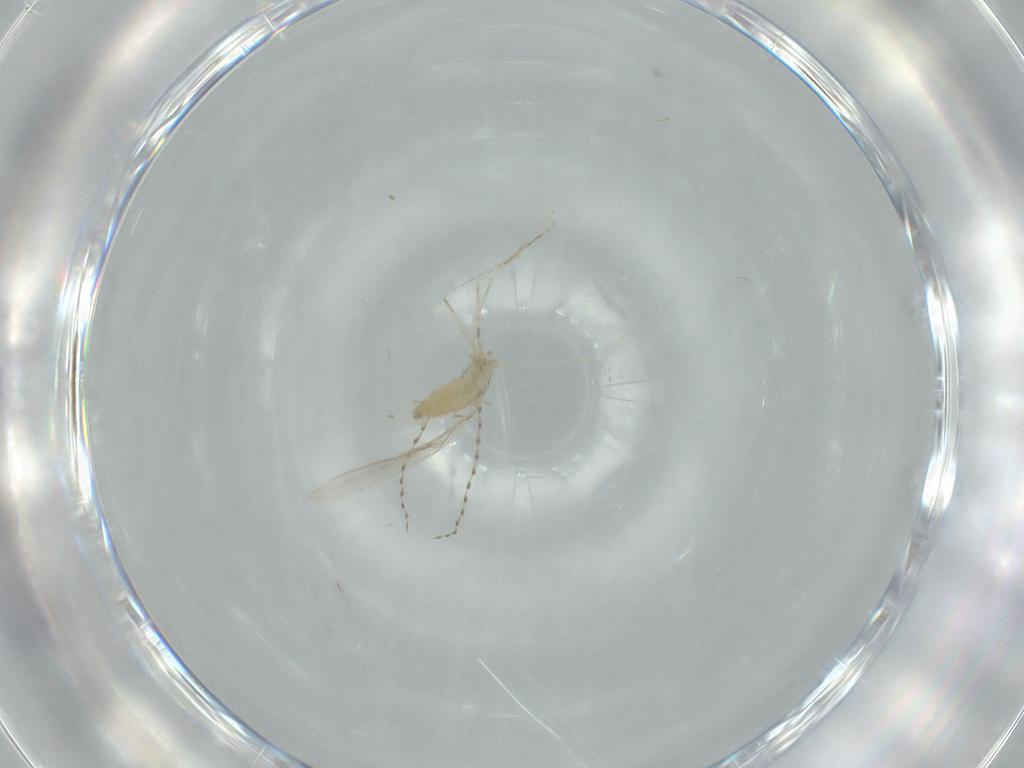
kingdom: Animalia
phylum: Arthropoda
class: Insecta
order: Diptera
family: Cecidomyiidae
